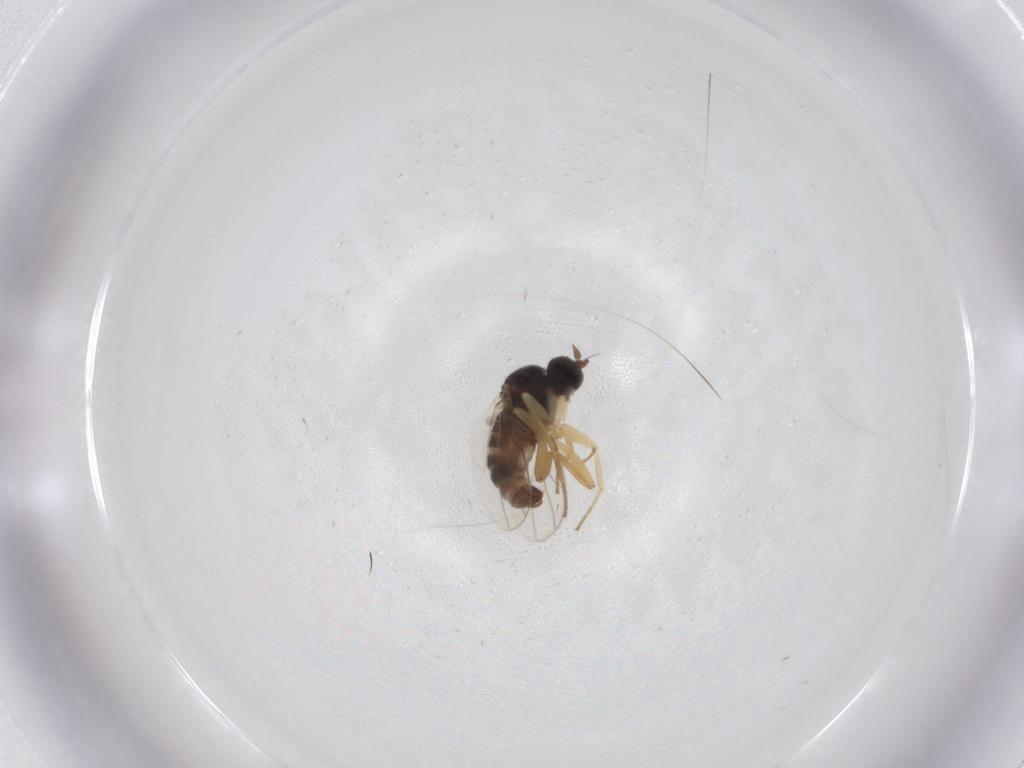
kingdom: Animalia
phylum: Arthropoda
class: Insecta
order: Diptera
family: Hybotidae
